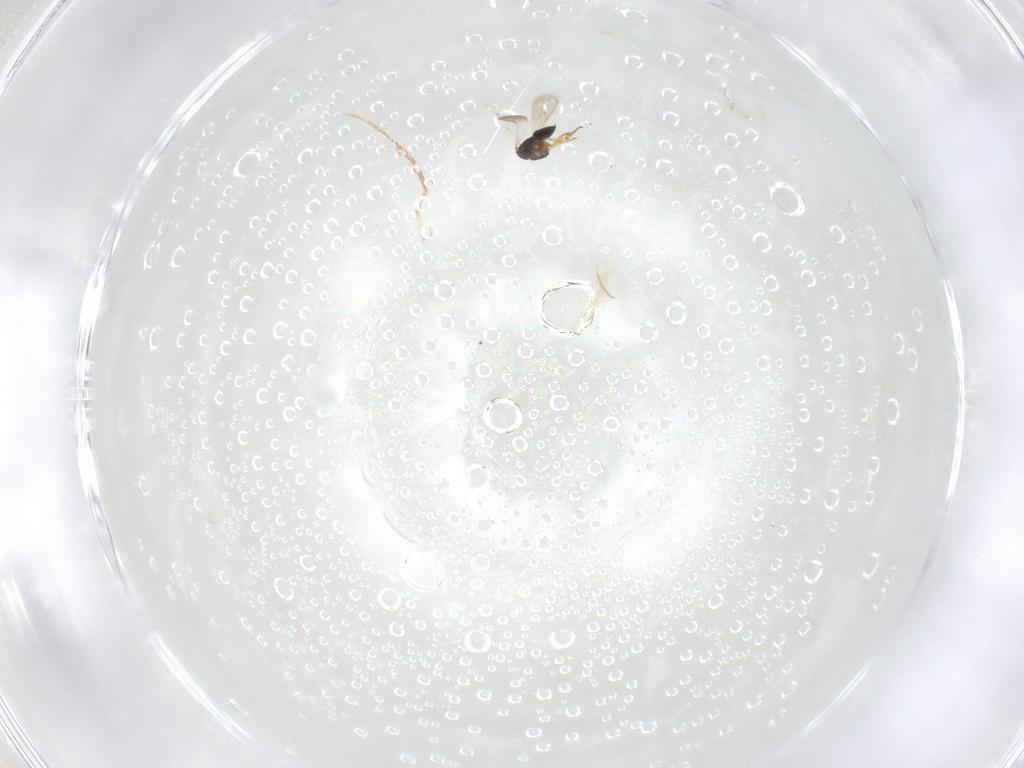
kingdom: Animalia
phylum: Arthropoda
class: Insecta
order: Hymenoptera
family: Scelionidae
